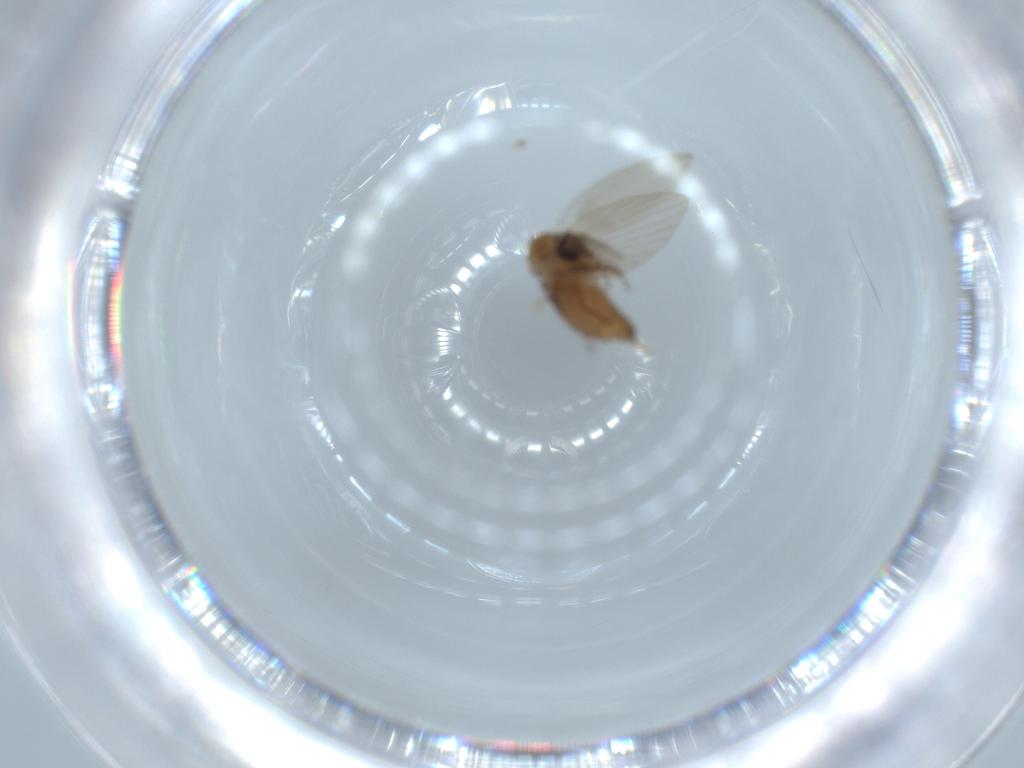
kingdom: Animalia
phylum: Arthropoda
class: Insecta
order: Diptera
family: Psychodidae
